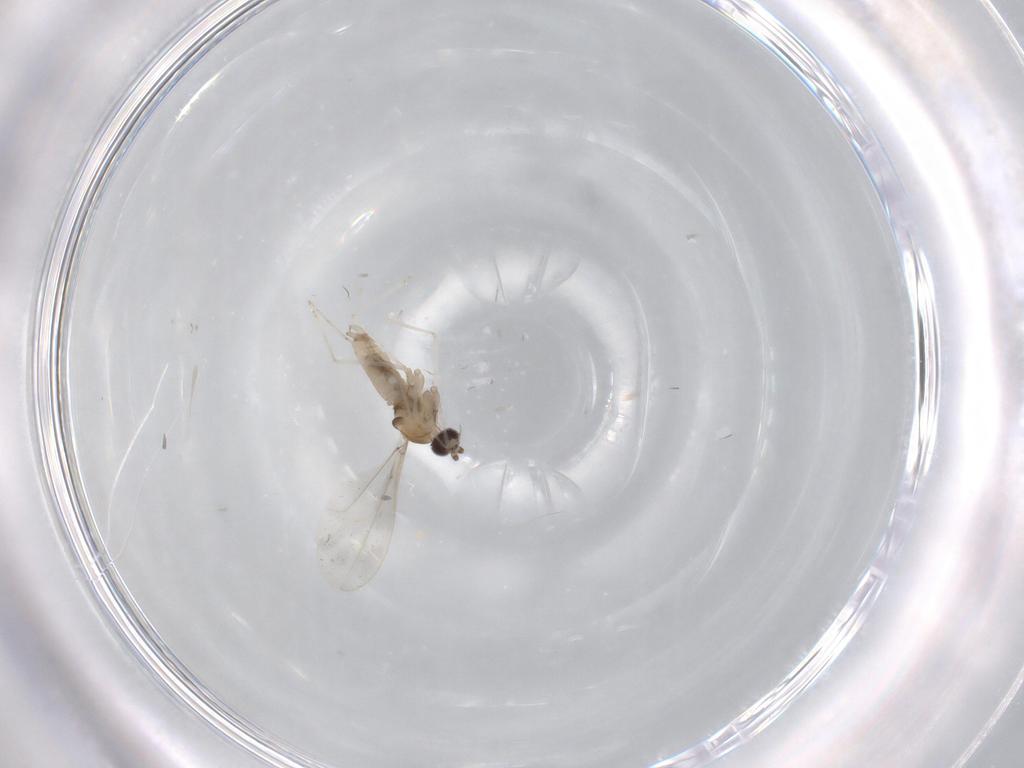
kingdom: Animalia
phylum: Arthropoda
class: Insecta
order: Diptera
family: Cecidomyiidae
